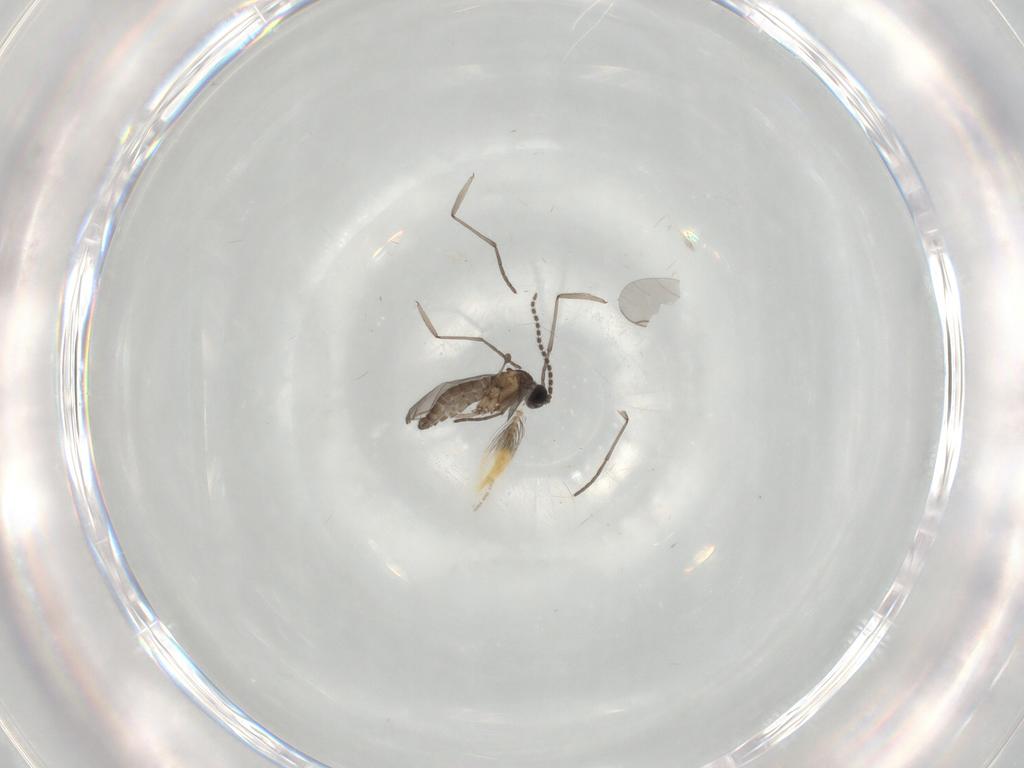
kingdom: Animalia
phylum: Arthropoda
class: Insecta
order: Diptera
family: Sciaridae
